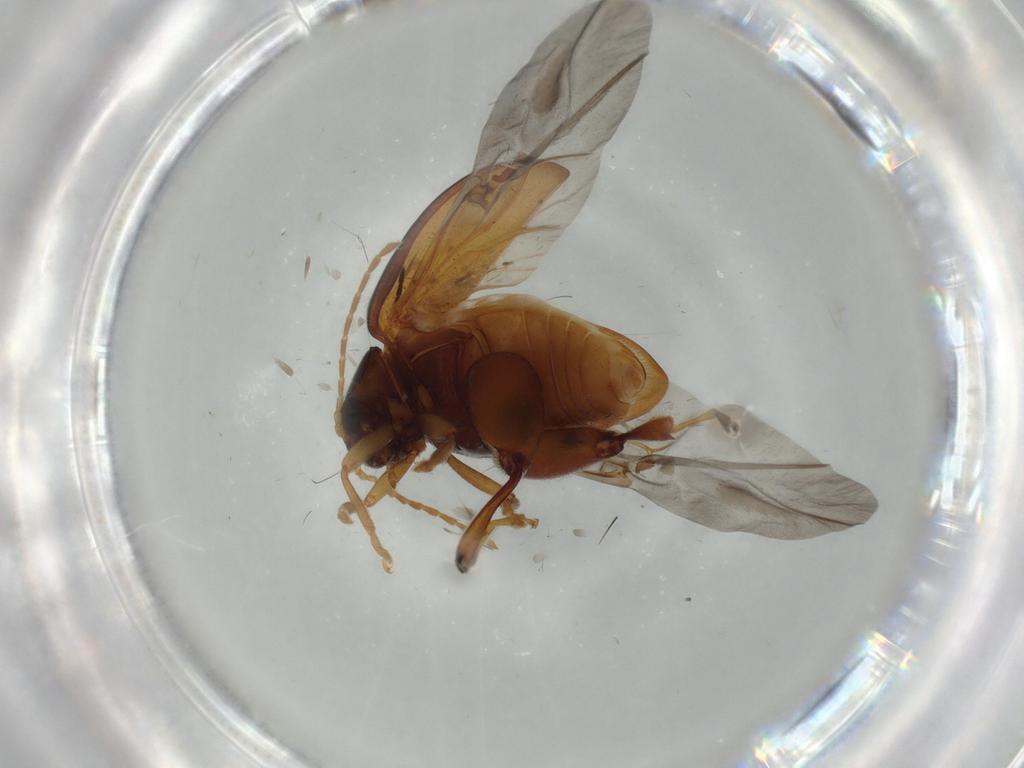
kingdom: Animalia
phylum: Arthropoda
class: Insecta
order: Coleoptera
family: Chrysomelidae
